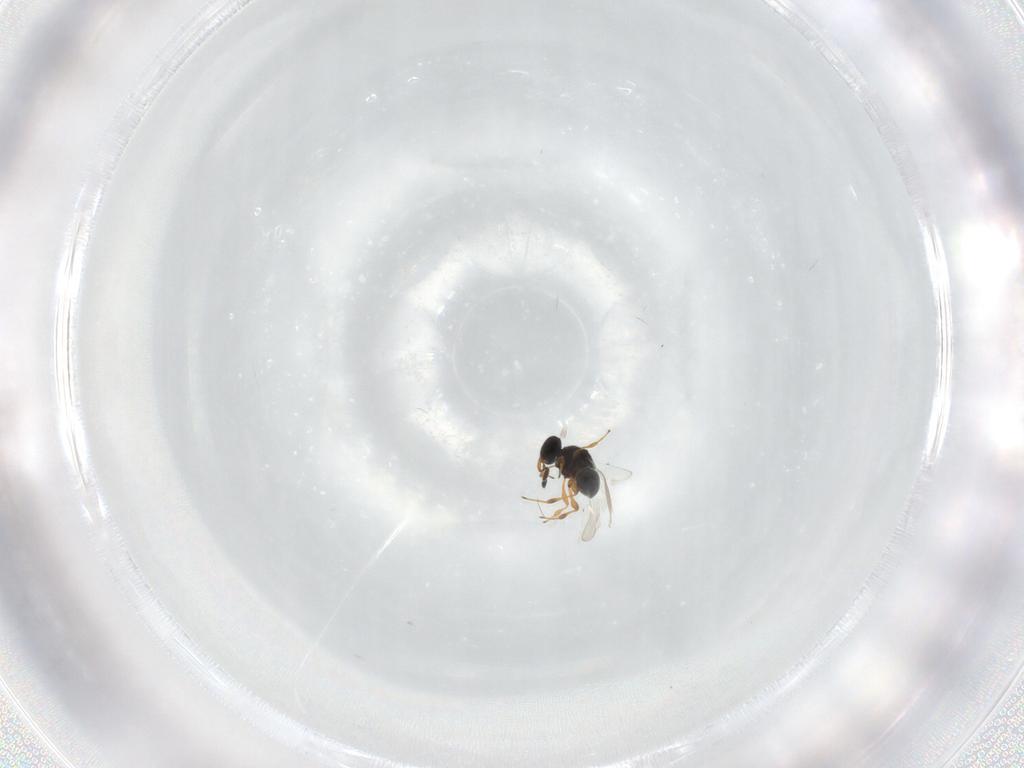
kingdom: Animalia
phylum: Arthropoda
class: Insecta
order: Hymenoptera
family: Platygastridae
